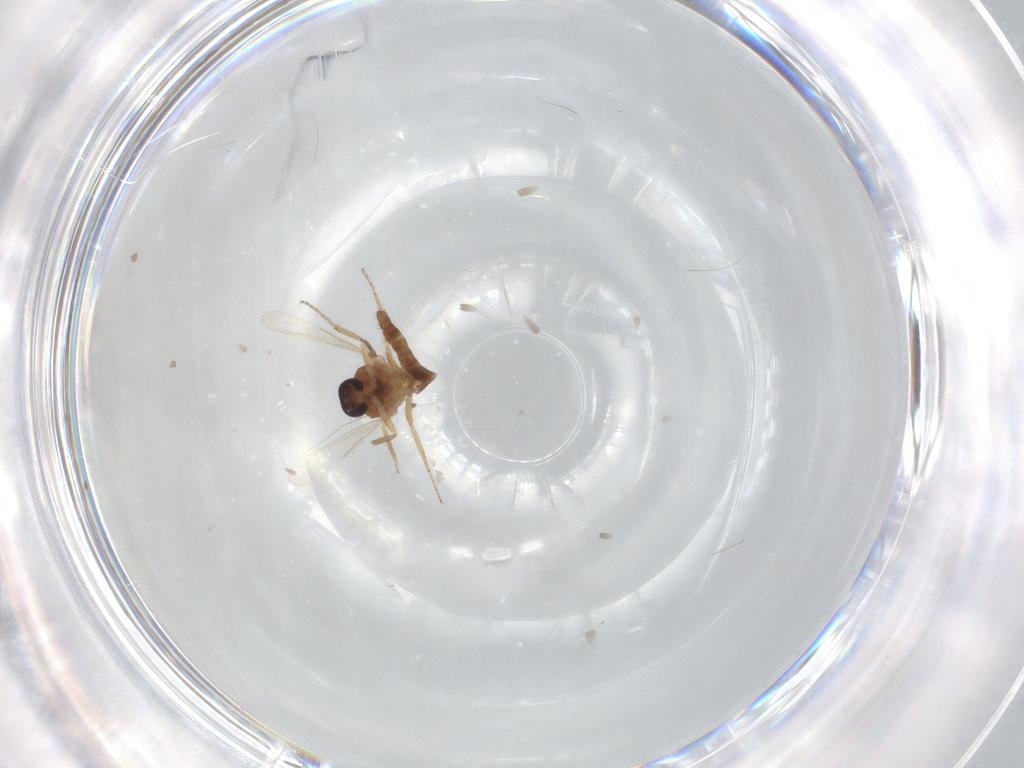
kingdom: Animalia
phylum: Arthropoda
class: Insecta
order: Diptera
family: Ceratopogonidae
